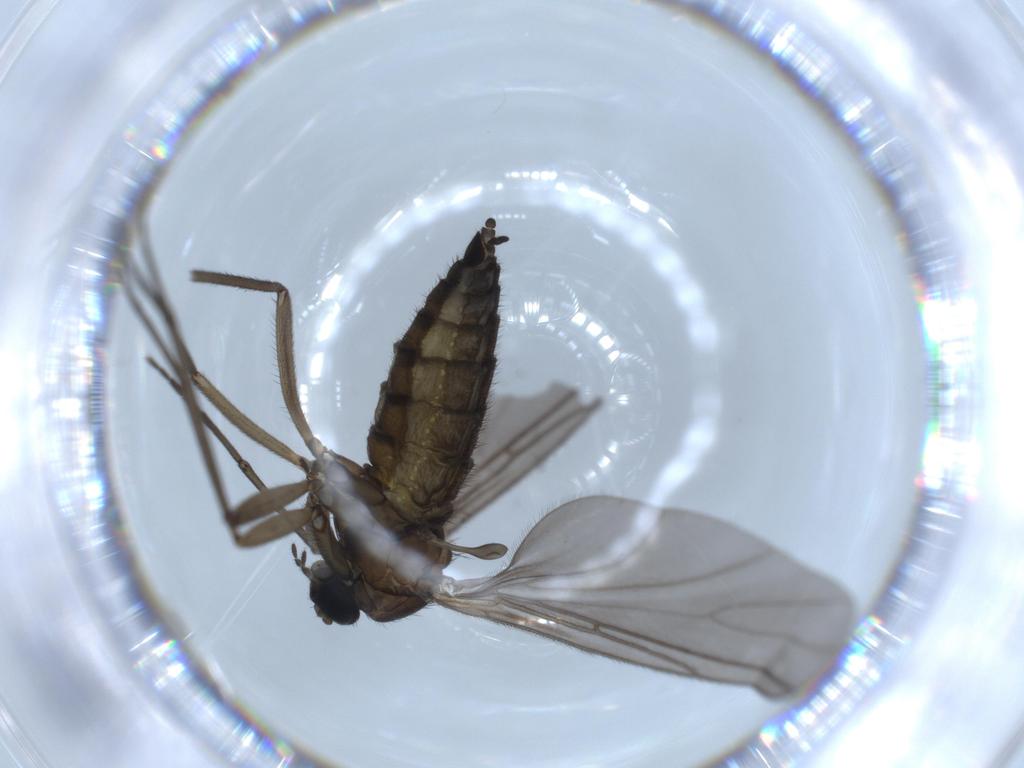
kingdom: Animalia
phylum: Arthropoda
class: Insecta
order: Diptera
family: Sciaridae
